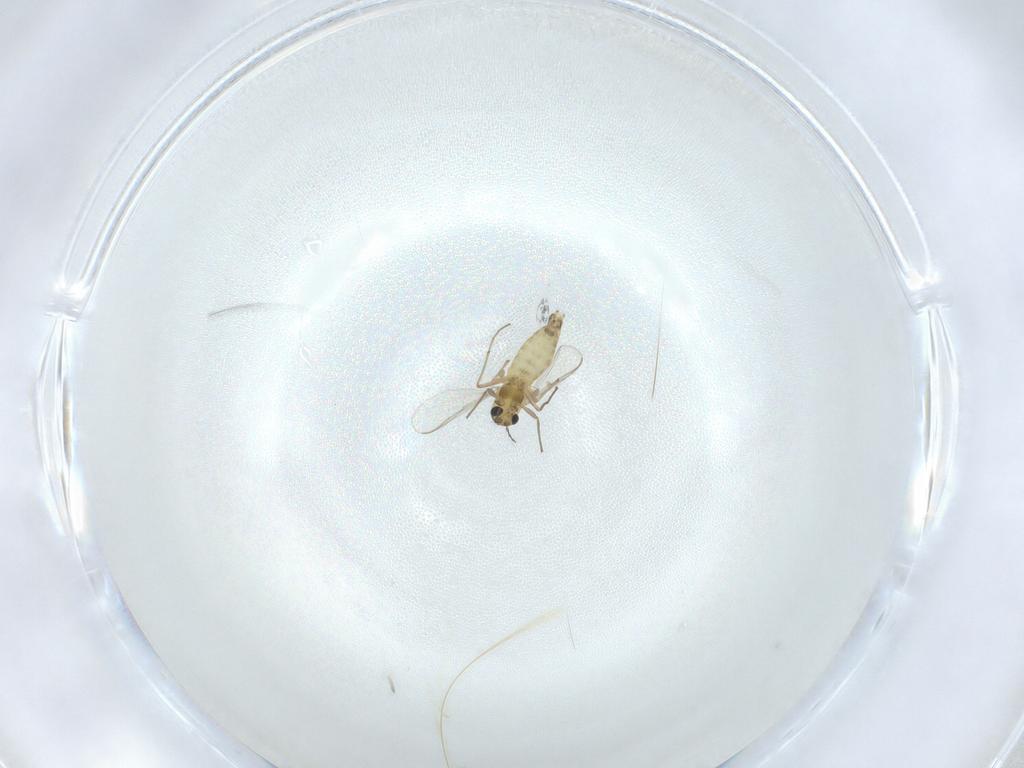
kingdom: Animalia
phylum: Arthropoda
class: Insecta
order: Diptera
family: Chironomidae
